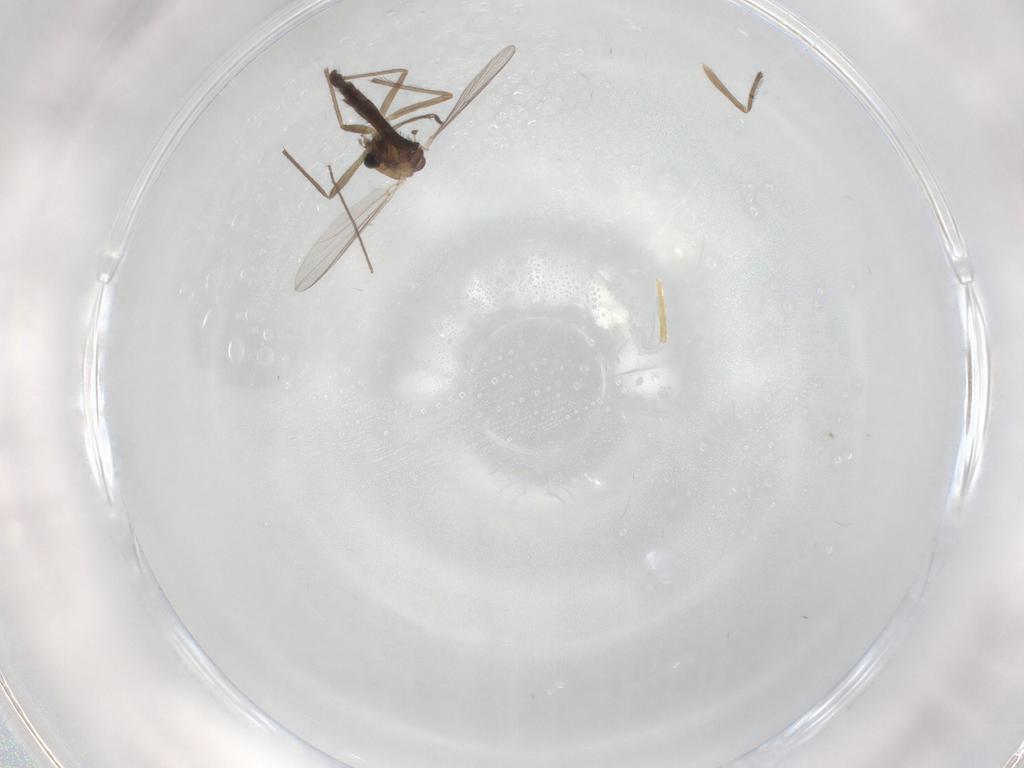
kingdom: Animalia
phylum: Arthropoda
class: Insecta
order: Diptera
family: Chironomidae
